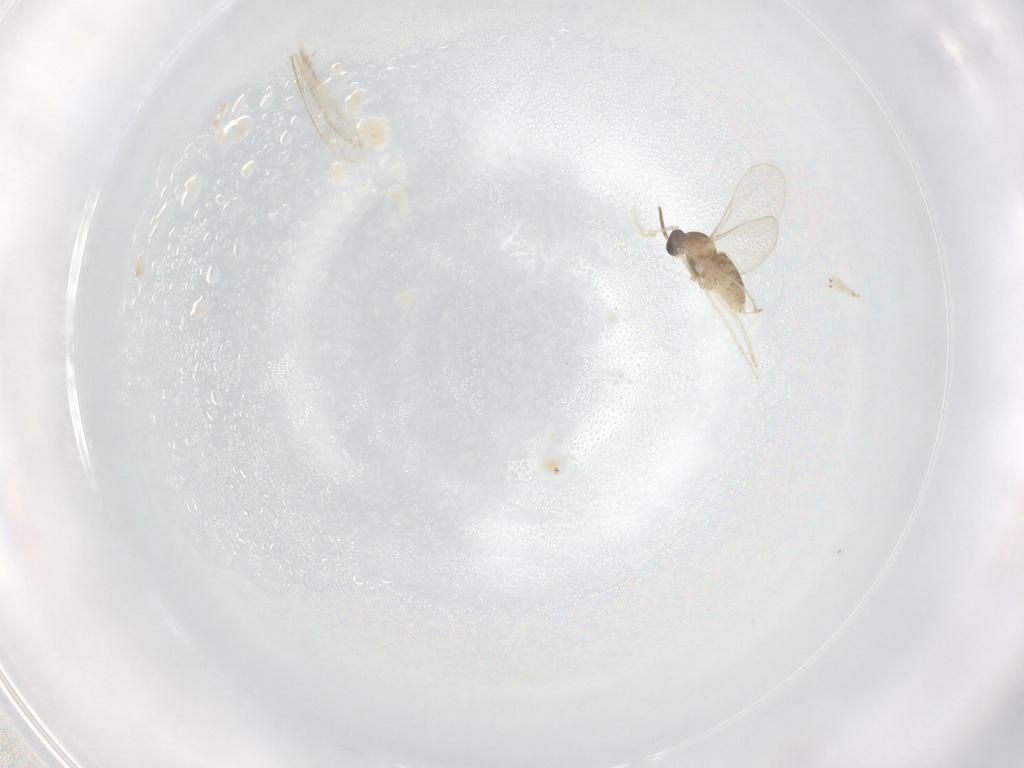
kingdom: Animalia
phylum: Arthropoda
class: Insecta
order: Diptera
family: Cecidomyiidae
